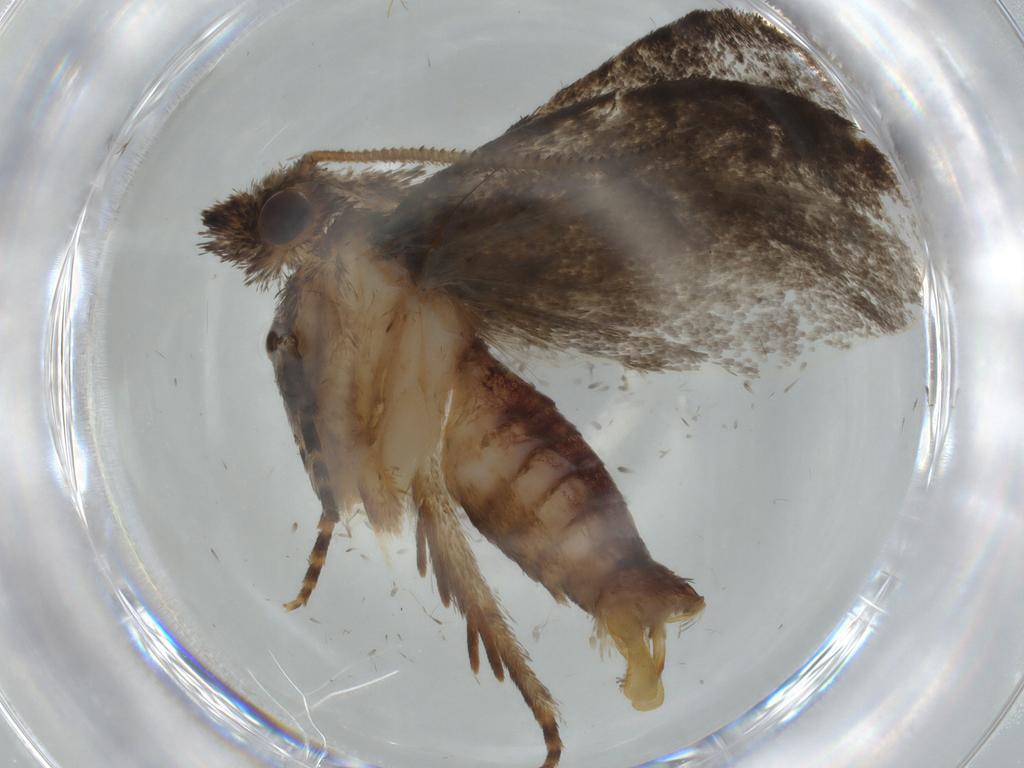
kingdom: Animalia
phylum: Arthropoda
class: Insecta
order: Lepidoptera
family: Tineidae
